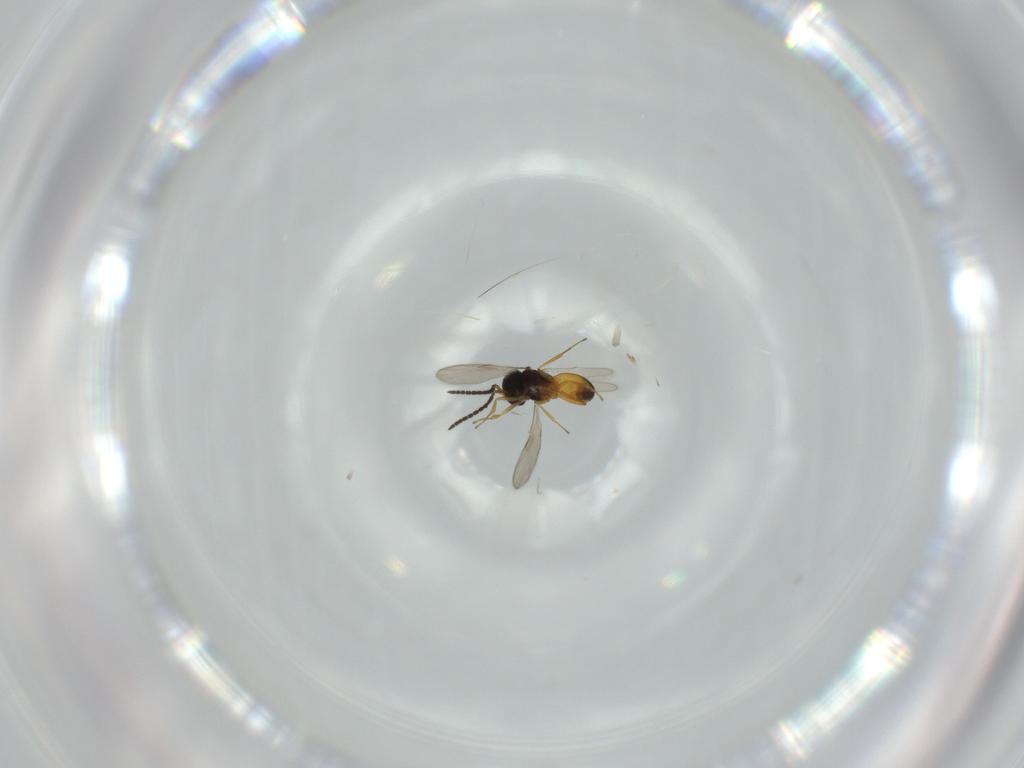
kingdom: Animalia
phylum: Arthropoda
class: Insecta
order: Hymenoptera
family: Scelionidae
